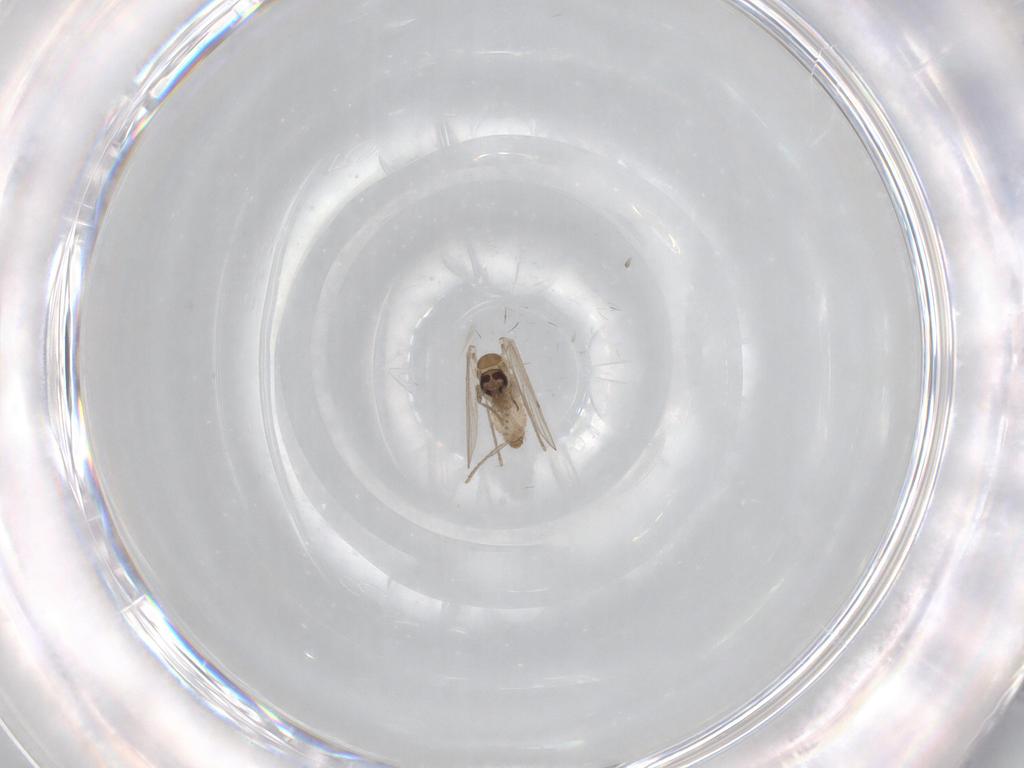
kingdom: Animalia
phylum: Arthropoda
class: Insecta
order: Diptera
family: Psychodidae
